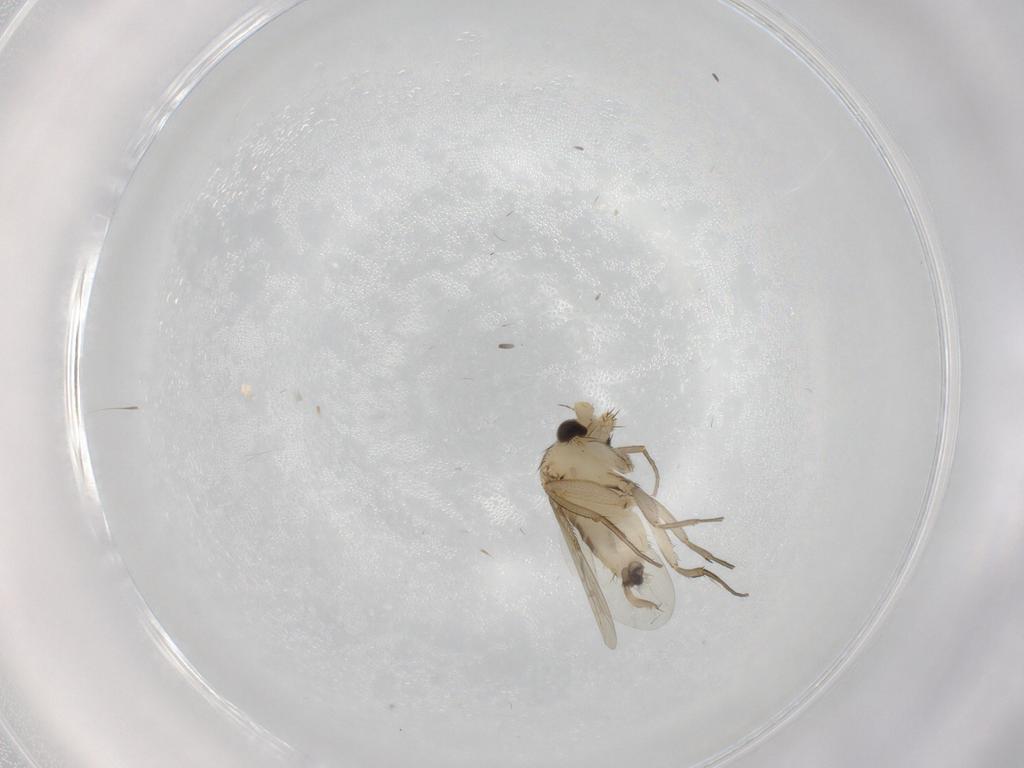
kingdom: Animalia
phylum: Arthropoda
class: Insecta
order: Diptera
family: Phoridae
